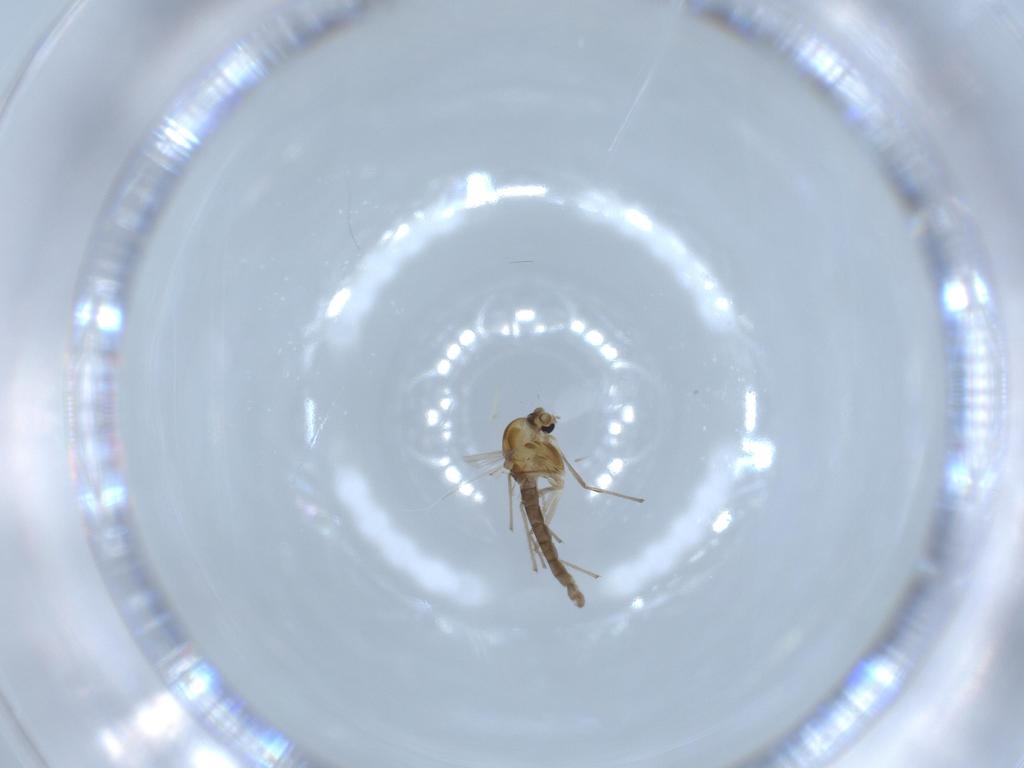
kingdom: Animalia
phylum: Arthropoda
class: Insecta
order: Diptera
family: Chironomidae
